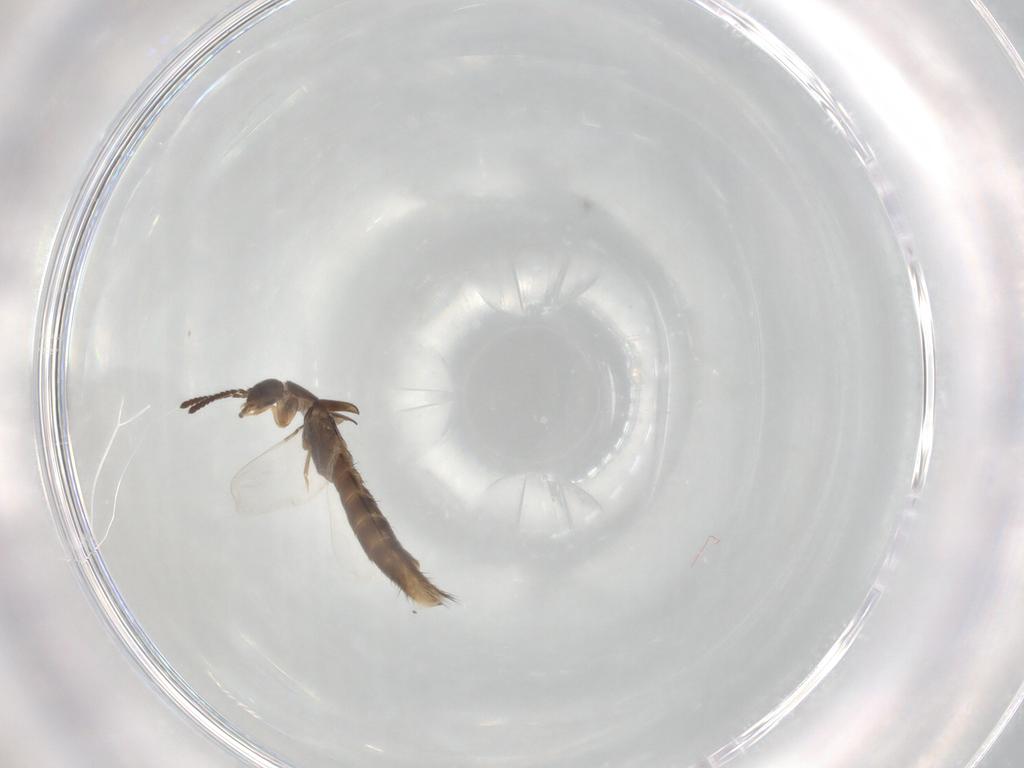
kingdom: Animalia
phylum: Arthropoda
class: Insecta
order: Coleoptera
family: Staphylinidae
